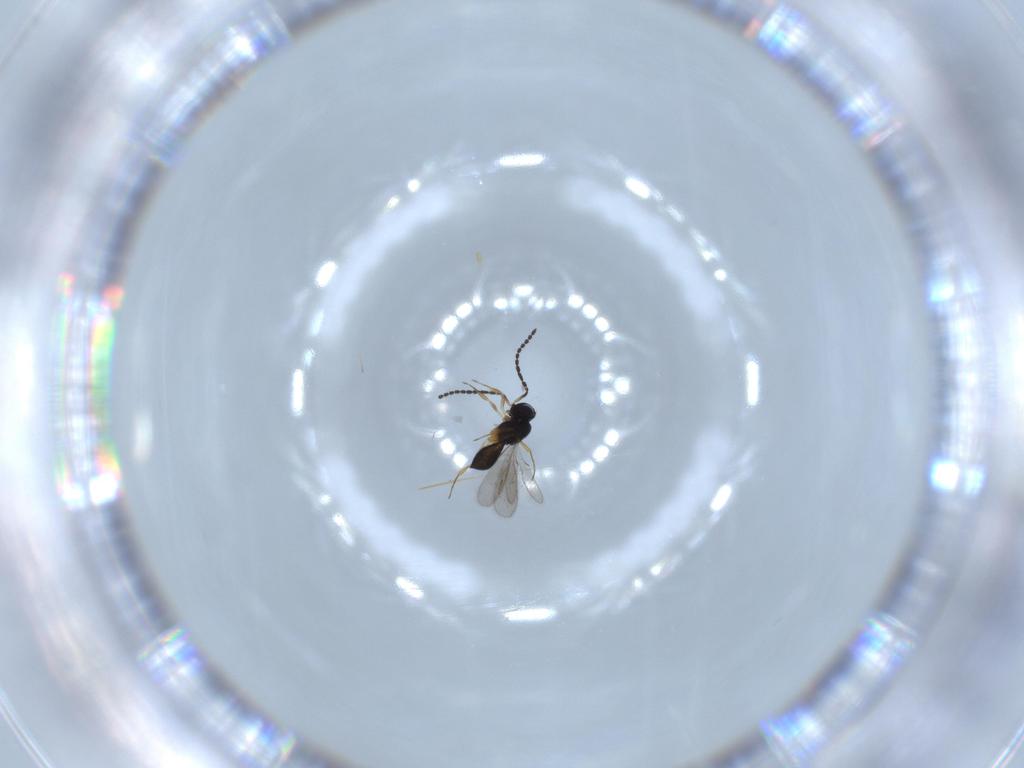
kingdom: Animalia
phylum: Arthropoda
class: Insecta
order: Hymenoptera
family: Scelionidae
